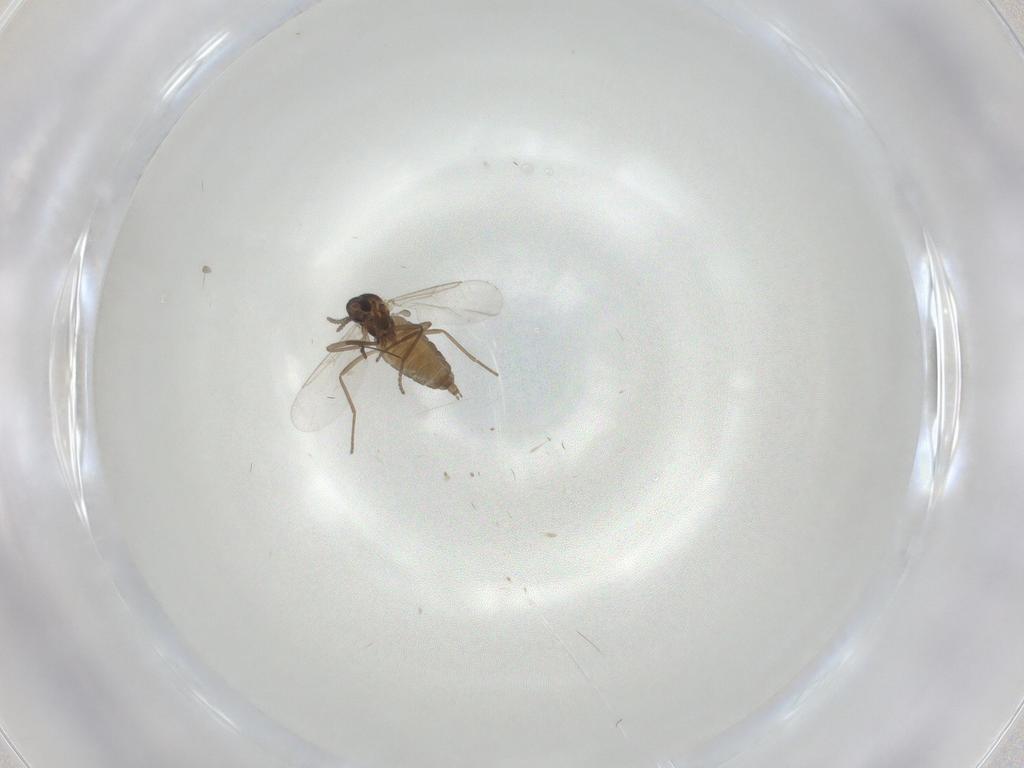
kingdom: Animalia
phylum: Arthropoda
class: Insecta
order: Diptera
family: Cecidomyiidae
